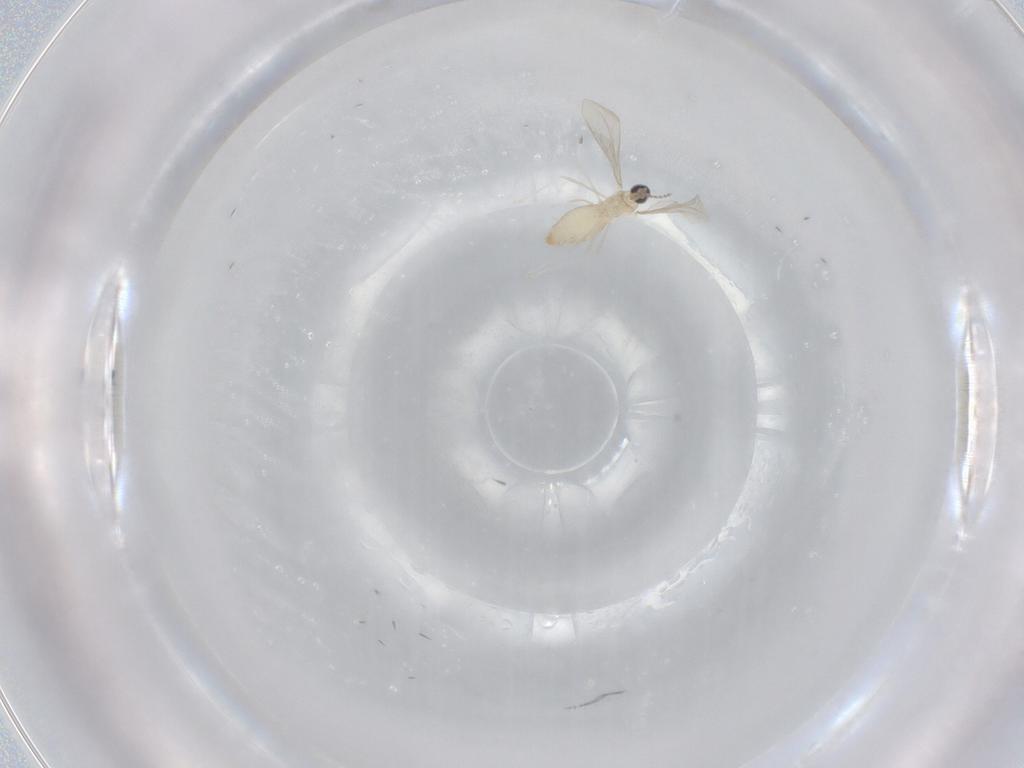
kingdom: Animalia
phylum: Arthropoda
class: Insecta
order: Diptera
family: Cecidomyiidae
